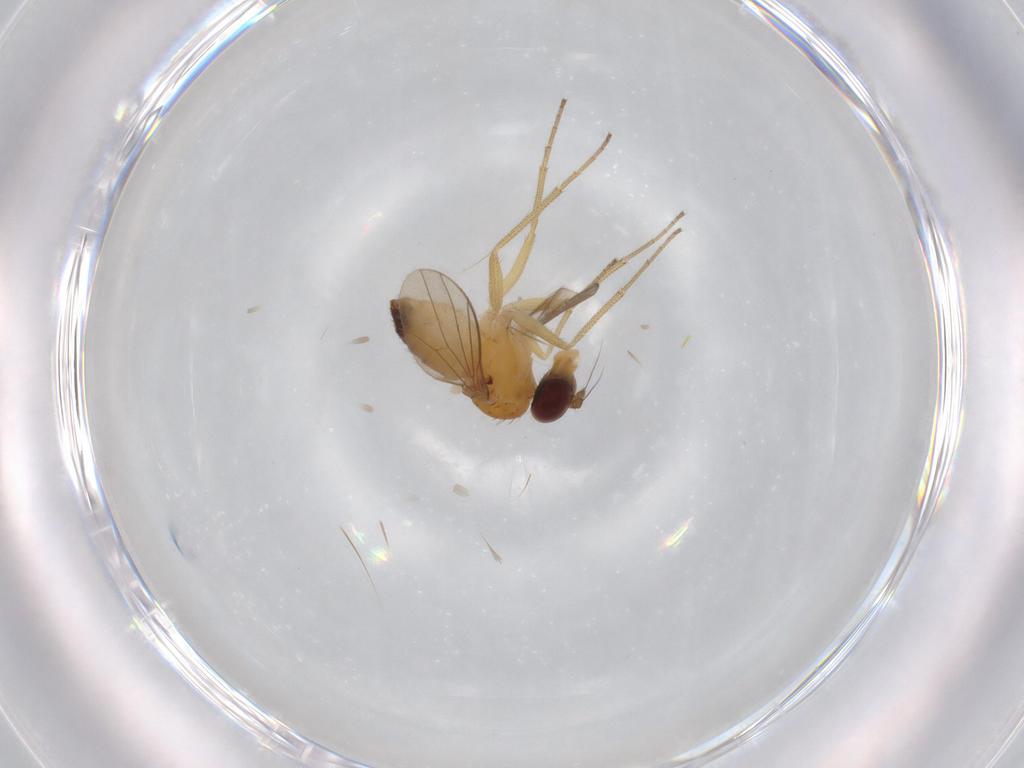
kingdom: Animalia
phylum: Arthropoda
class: Insecta
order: Diptera
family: Dolichopodidae
